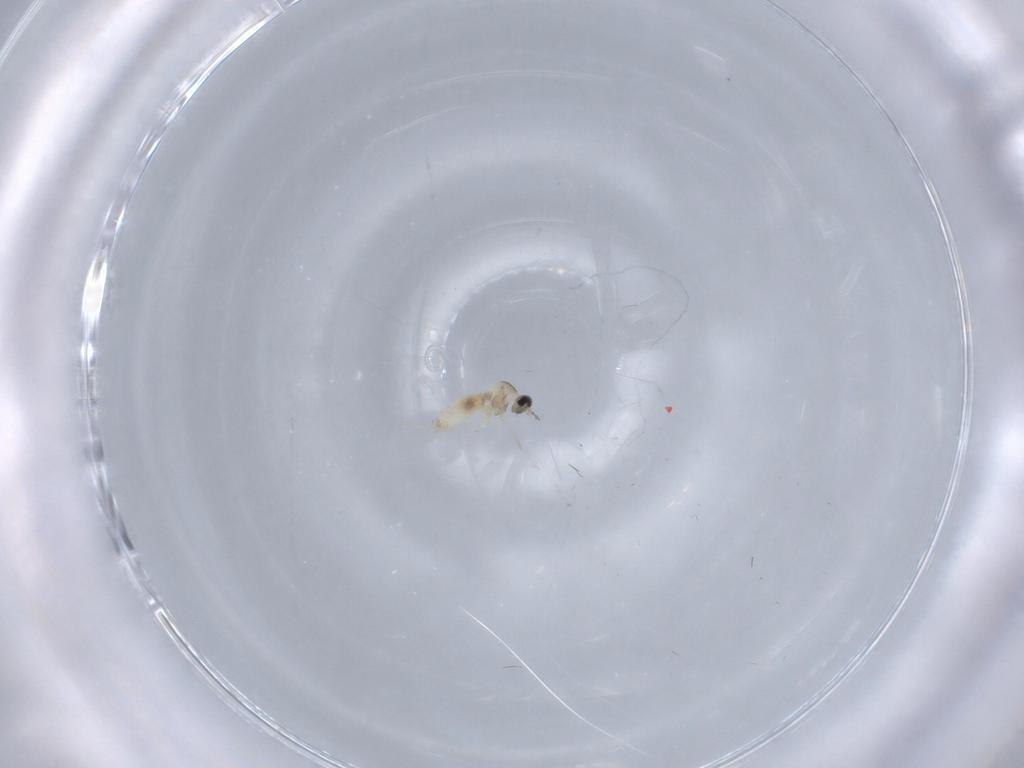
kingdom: Animalia
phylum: Arthropoda
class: Insecta
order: Diptera
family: Cecidomyiidae
